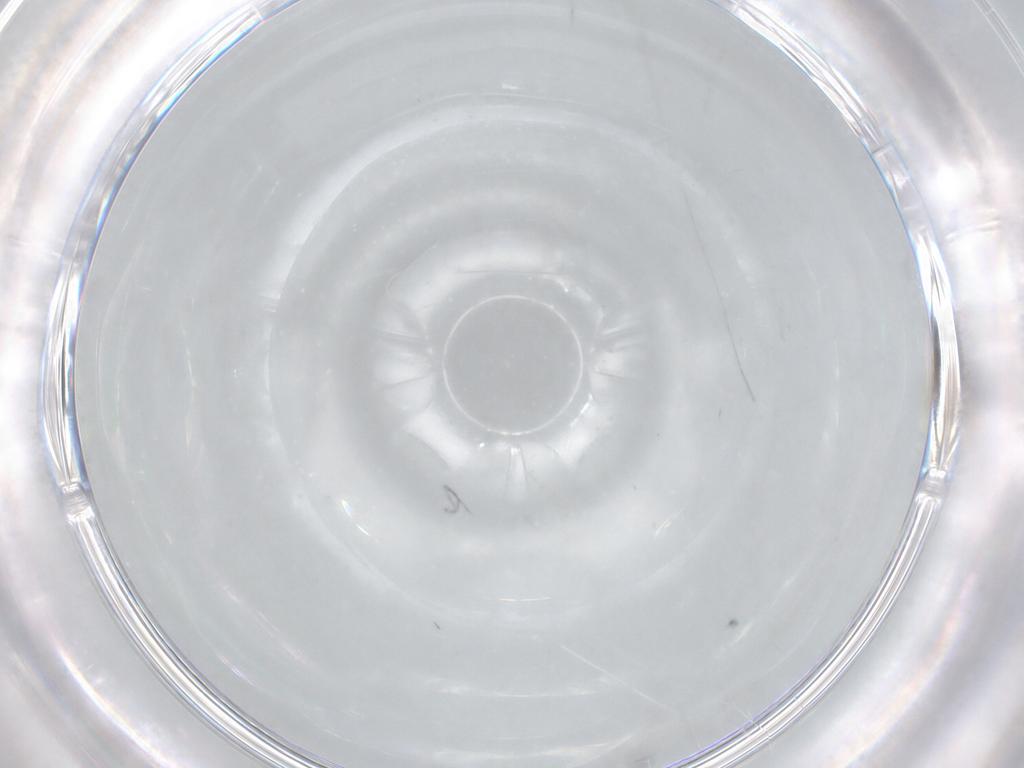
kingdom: Animalia
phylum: Arthropoda
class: Insecta
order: Hymenoptera
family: Platygastridae
